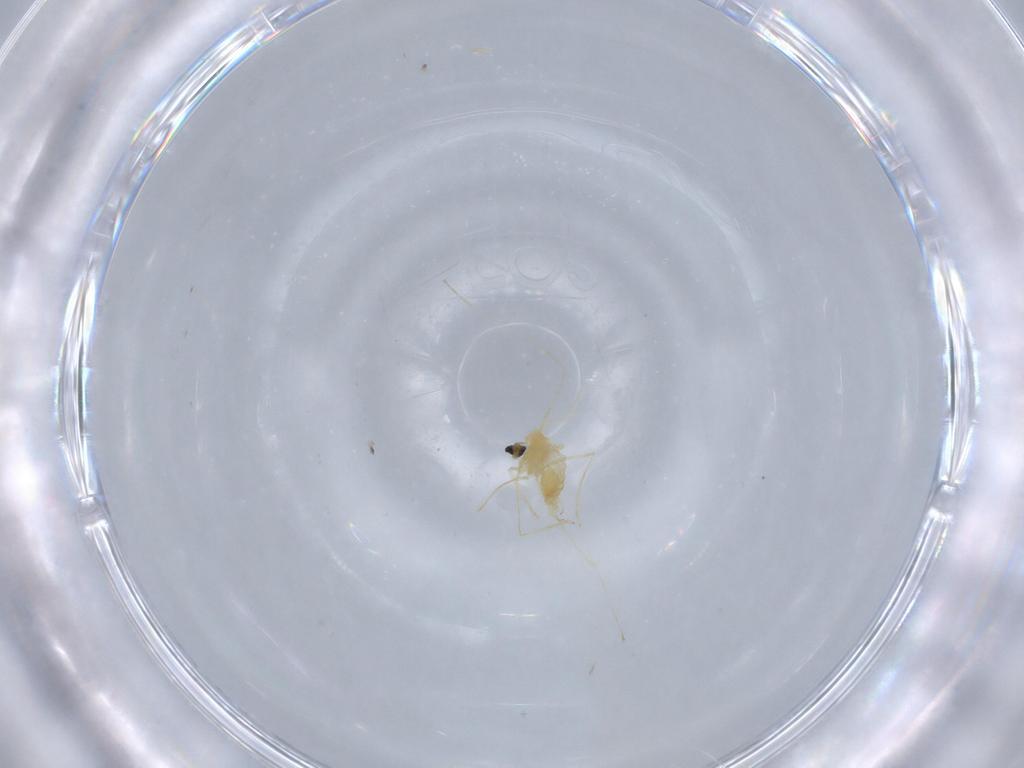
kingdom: Animalia
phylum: Arthropoda
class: Insecta
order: Diptera
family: Cecidomyiidae
